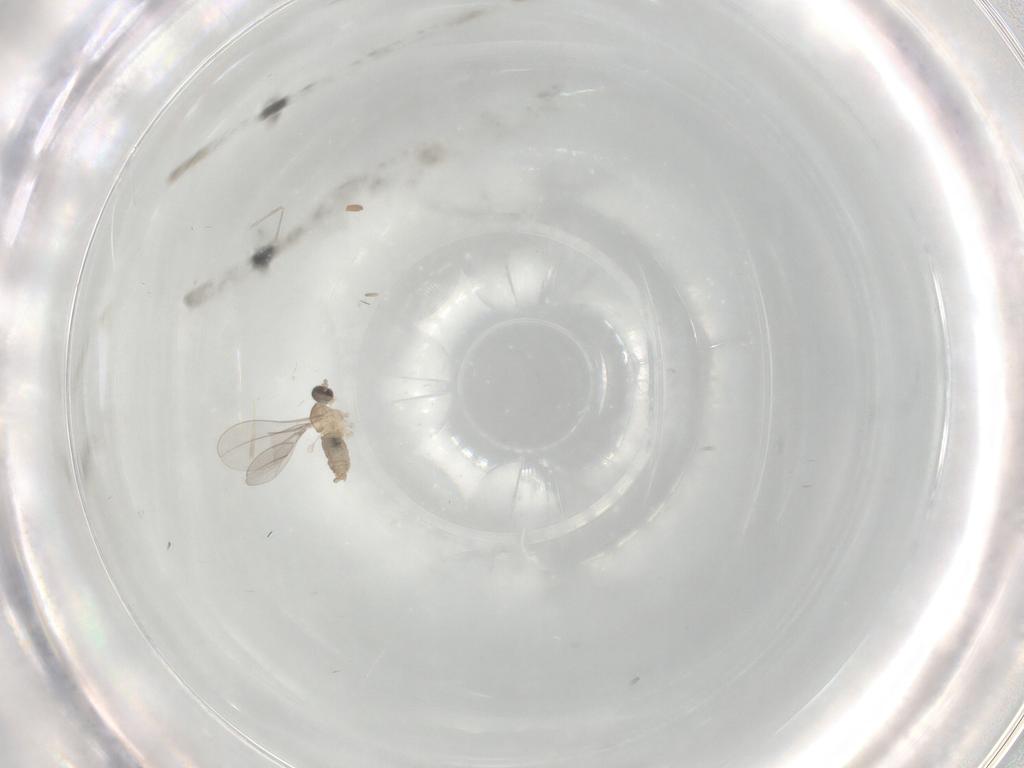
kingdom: Animalia
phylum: Arthropoda
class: Insecta
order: Diptera
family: Cecidomyiidae
